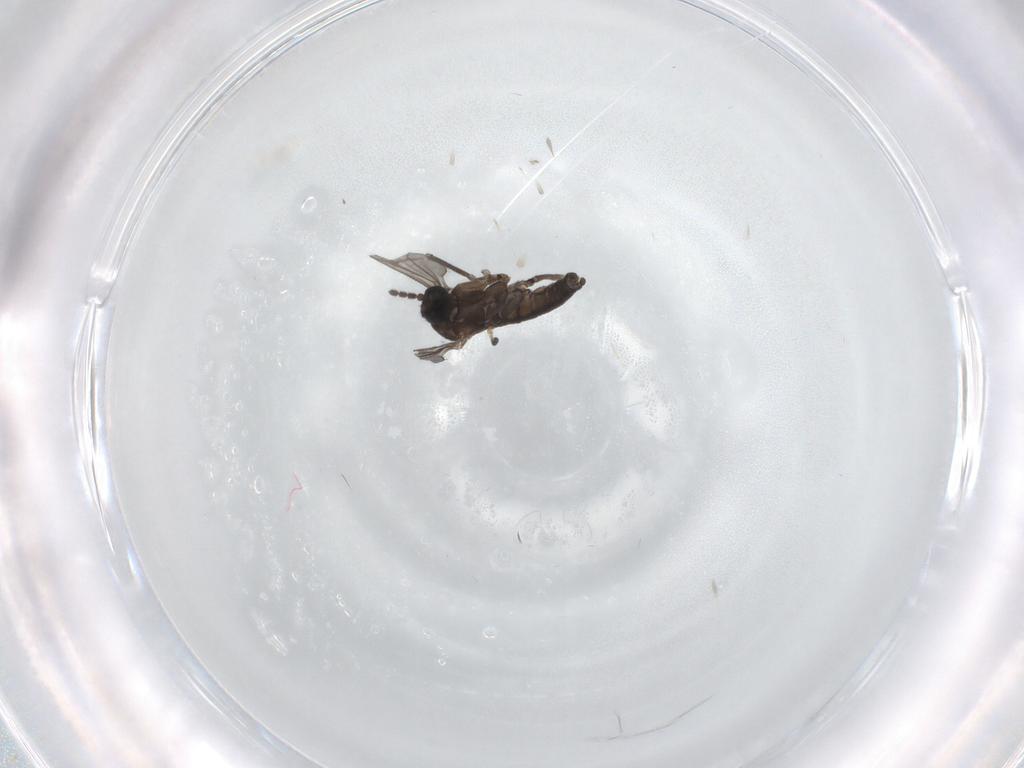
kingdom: Animalia
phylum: Arthropoda
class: Insecta
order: Diptera
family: Sciaridae
